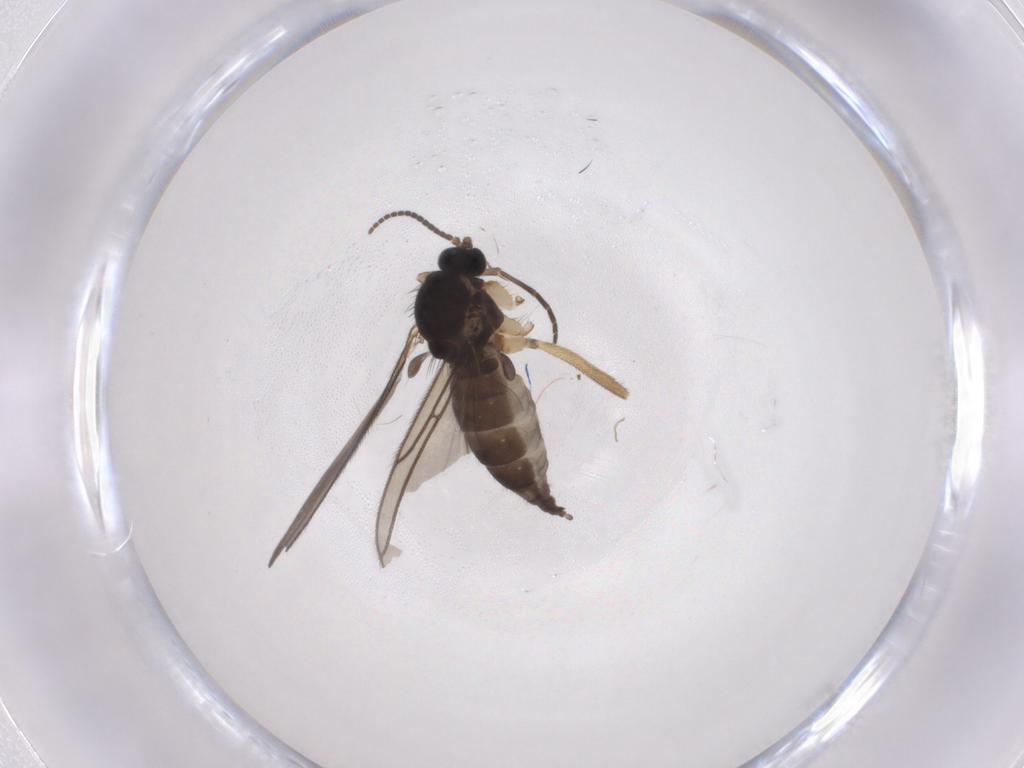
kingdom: Animalia
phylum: Arthropoda
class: Insecta
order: Diptera
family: Sciaridae
